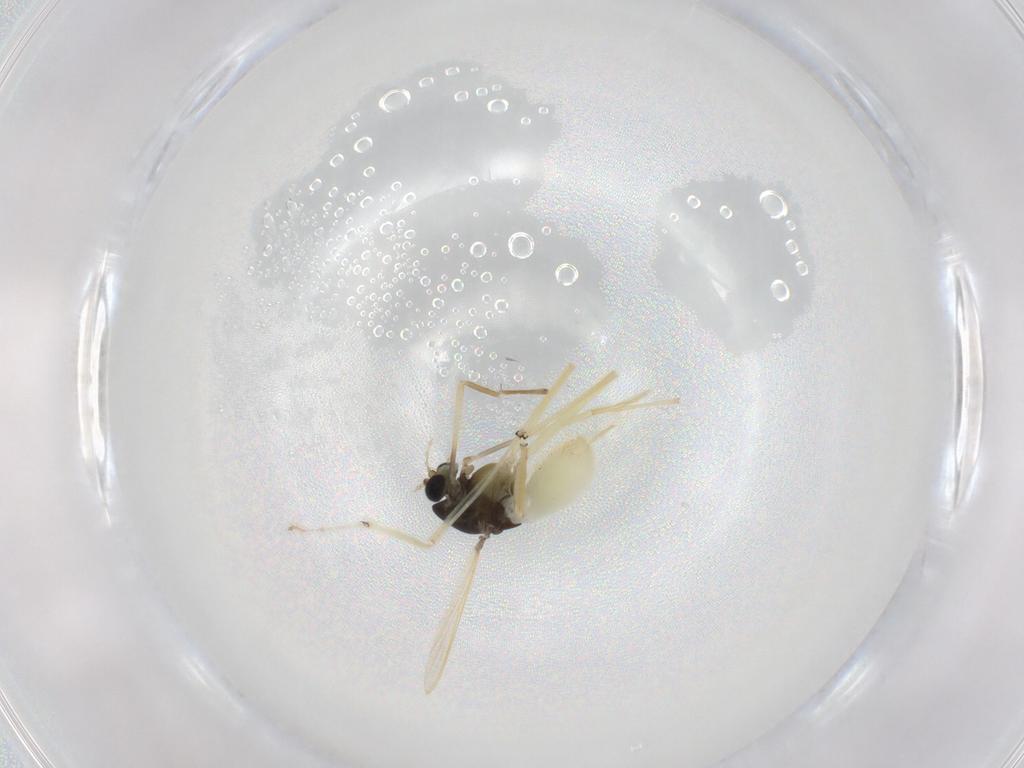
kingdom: Animalia
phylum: Arthropoda
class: Insecta
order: Diptera
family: Chironomidae
